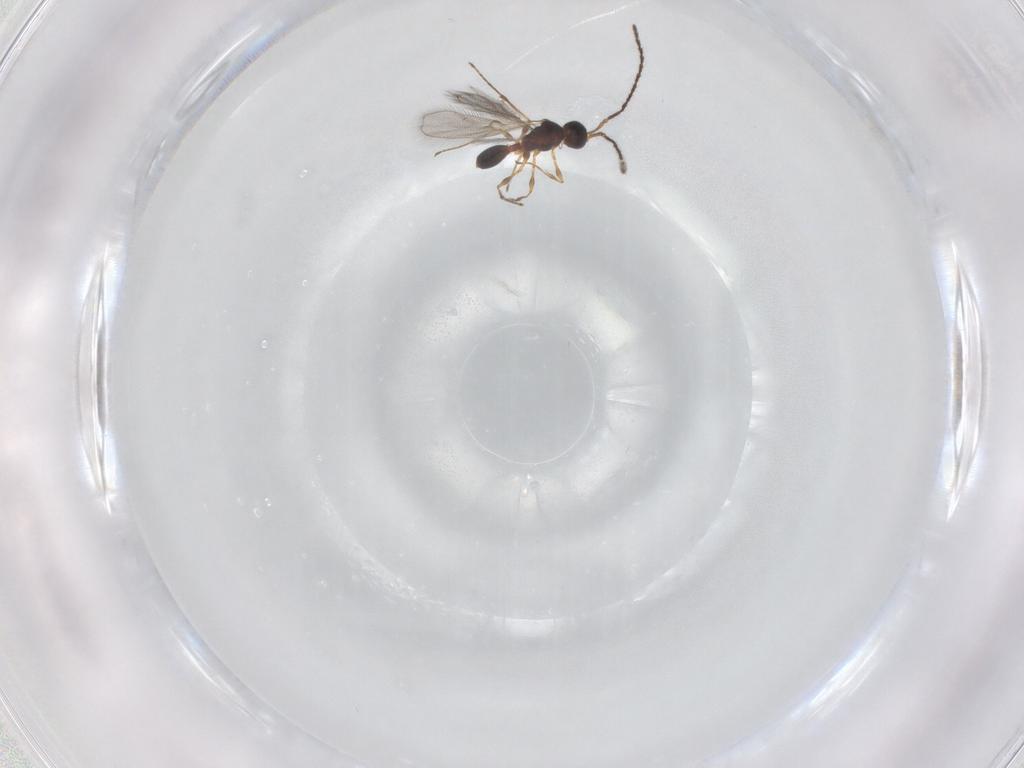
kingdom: Animalia
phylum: Arthropoda
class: Insecta
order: Hymenoptera
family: Diapriidae
